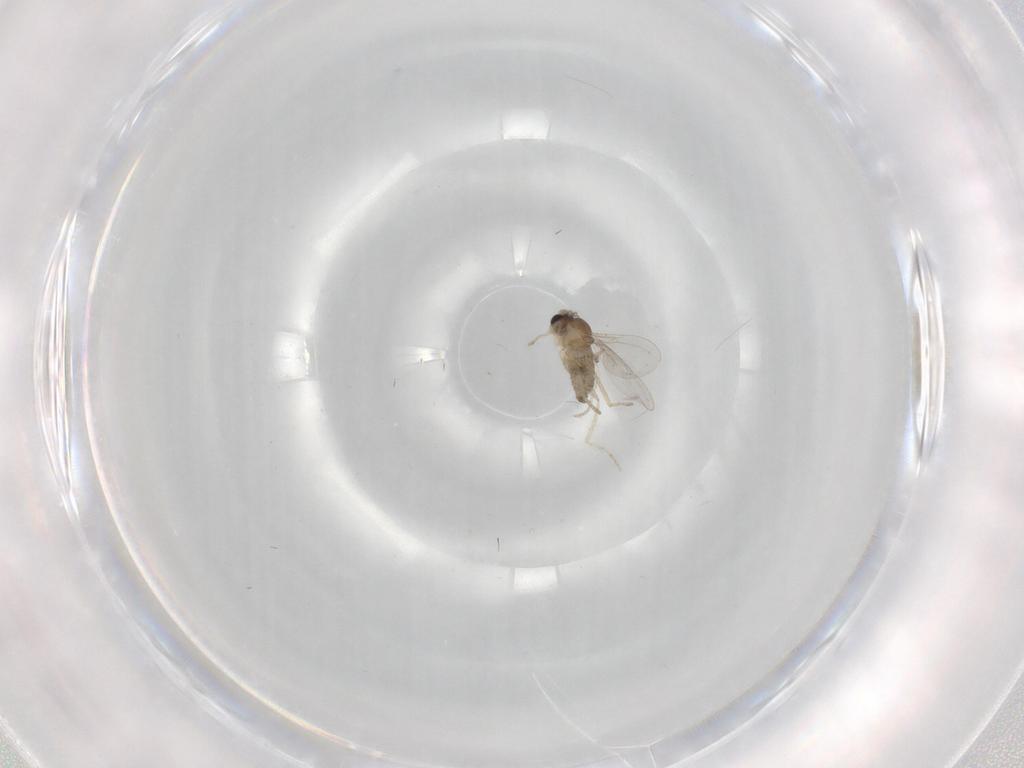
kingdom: Animalia
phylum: Arthropoda
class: Insecta
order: Diptera
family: Cecidomyiidae
